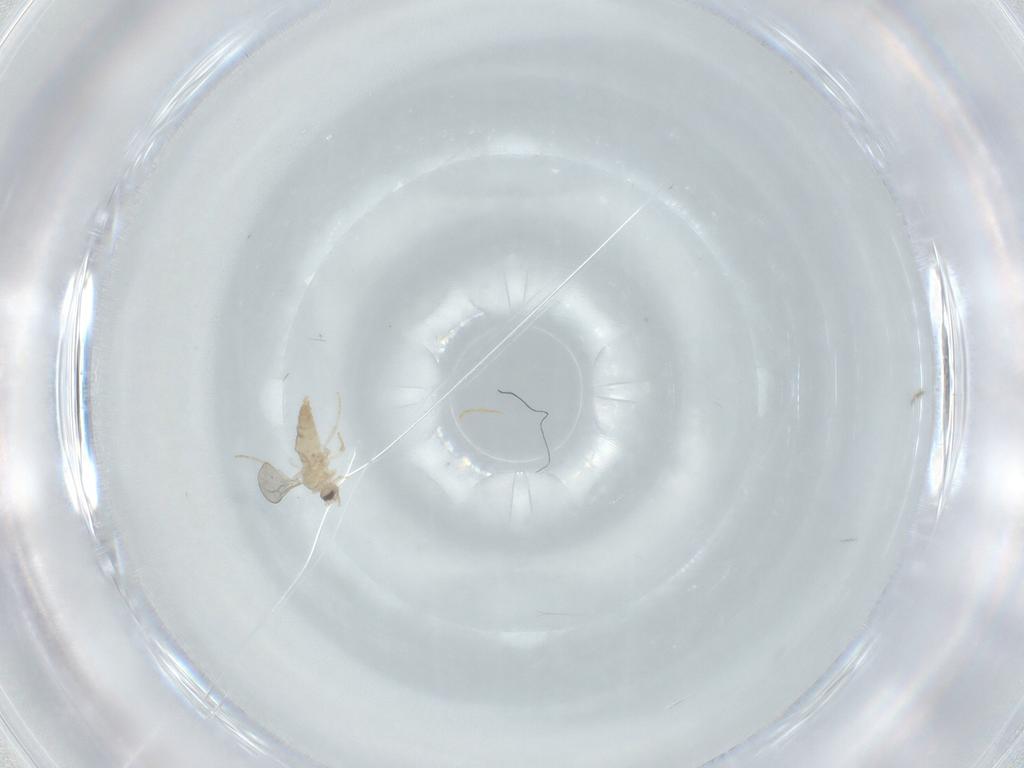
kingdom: Animalia
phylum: Arthropoda
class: Insecta
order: Diptera
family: Cecidomyiidae
